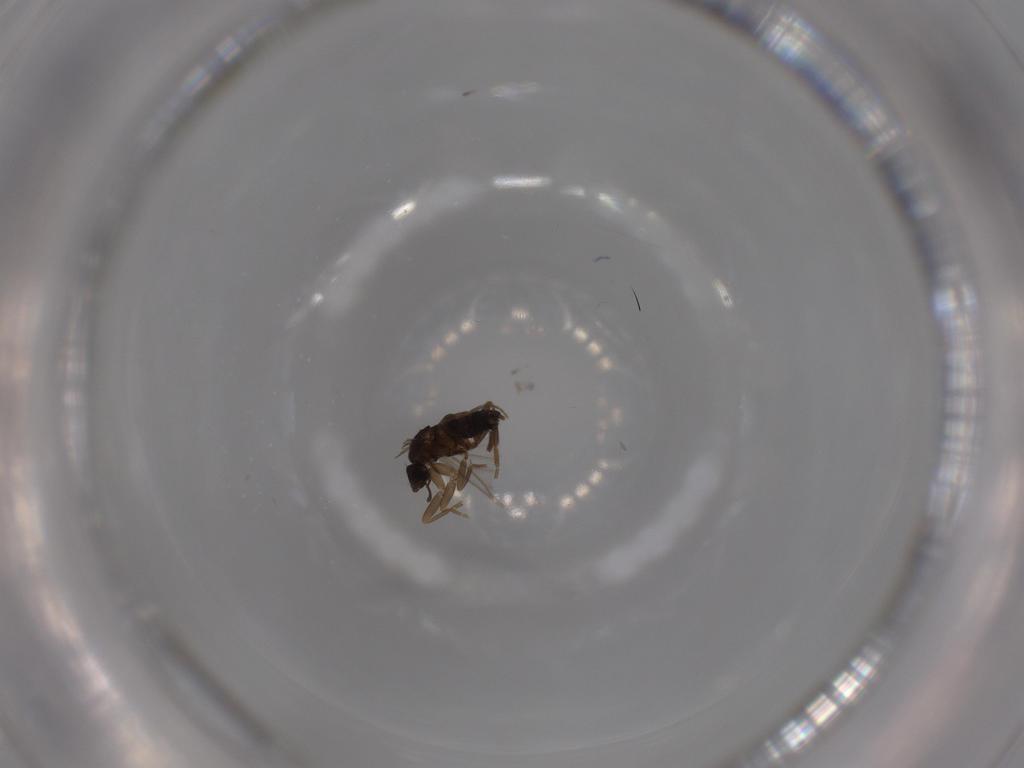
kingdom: Animalia
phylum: Arthropoda
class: Insecta
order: Diptera
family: Phoridae
